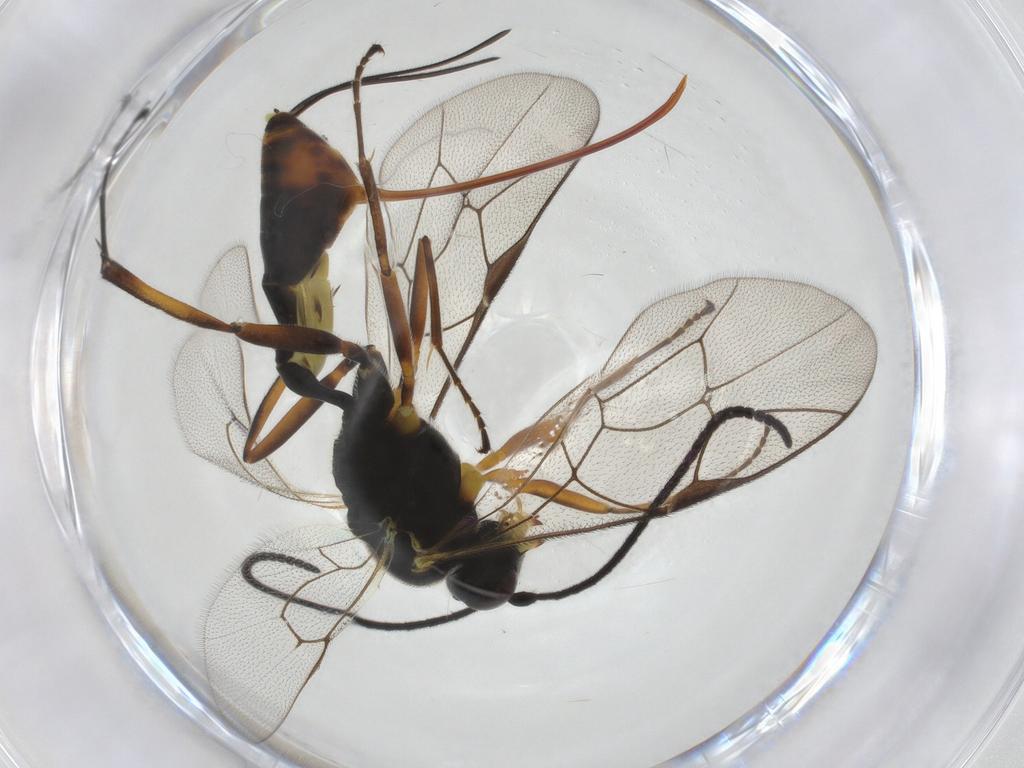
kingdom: Animalia
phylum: Arthropoda
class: Insecta
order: Hymenoptera
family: Ichneumonidae
